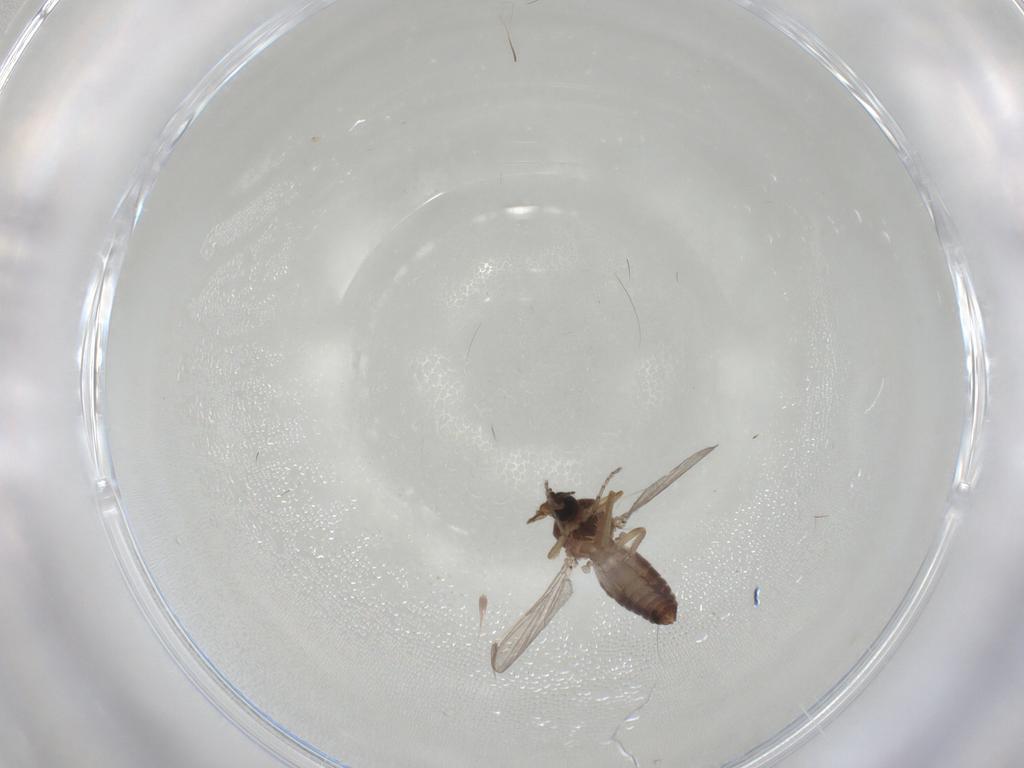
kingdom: Animalia
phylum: Arthropoda
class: Insecta
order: Diptera
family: Ceratopogonidae
